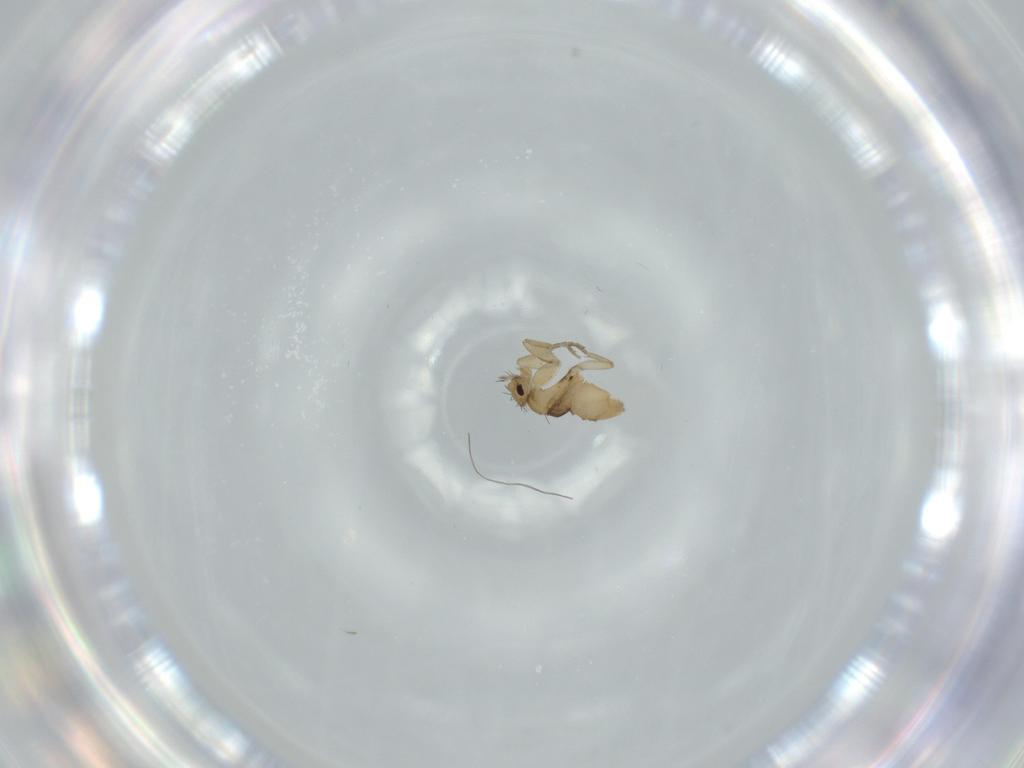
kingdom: Animalia
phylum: Arthropoda
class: Insecta
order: Diptera
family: Phoridae
